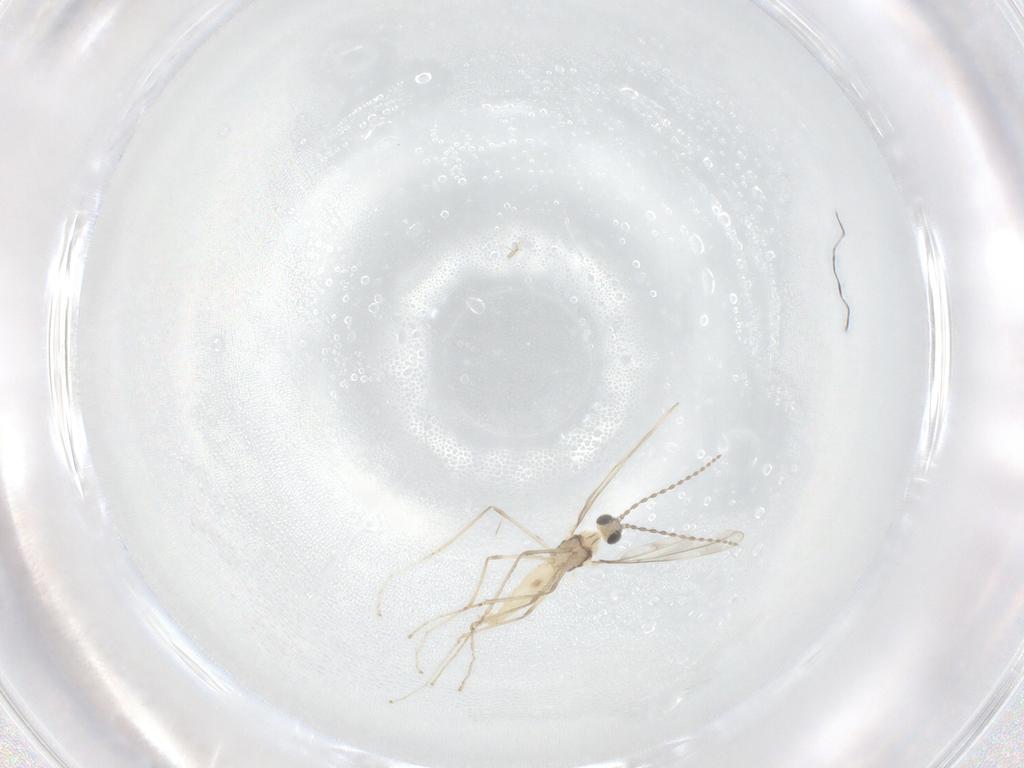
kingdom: Animalia
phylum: Arthropoda
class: Insecta
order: Diptera
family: Cecidomyiidae
